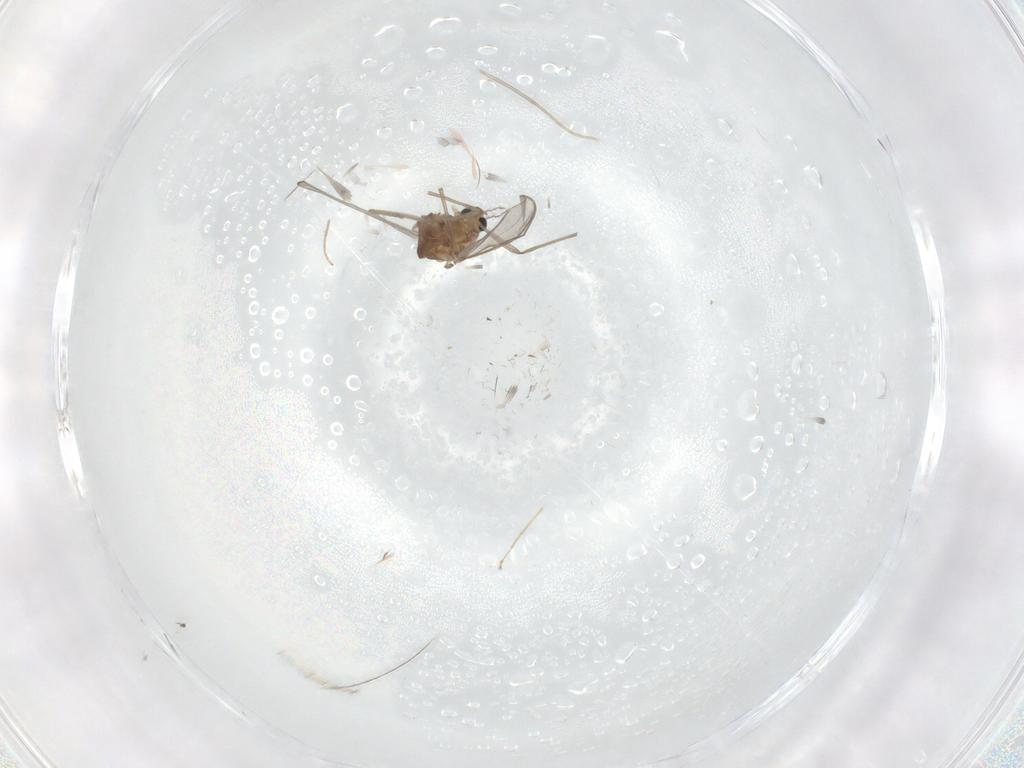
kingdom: Animalia
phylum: Arthropoda
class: Insecta
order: Diptera
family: Chironomidae
